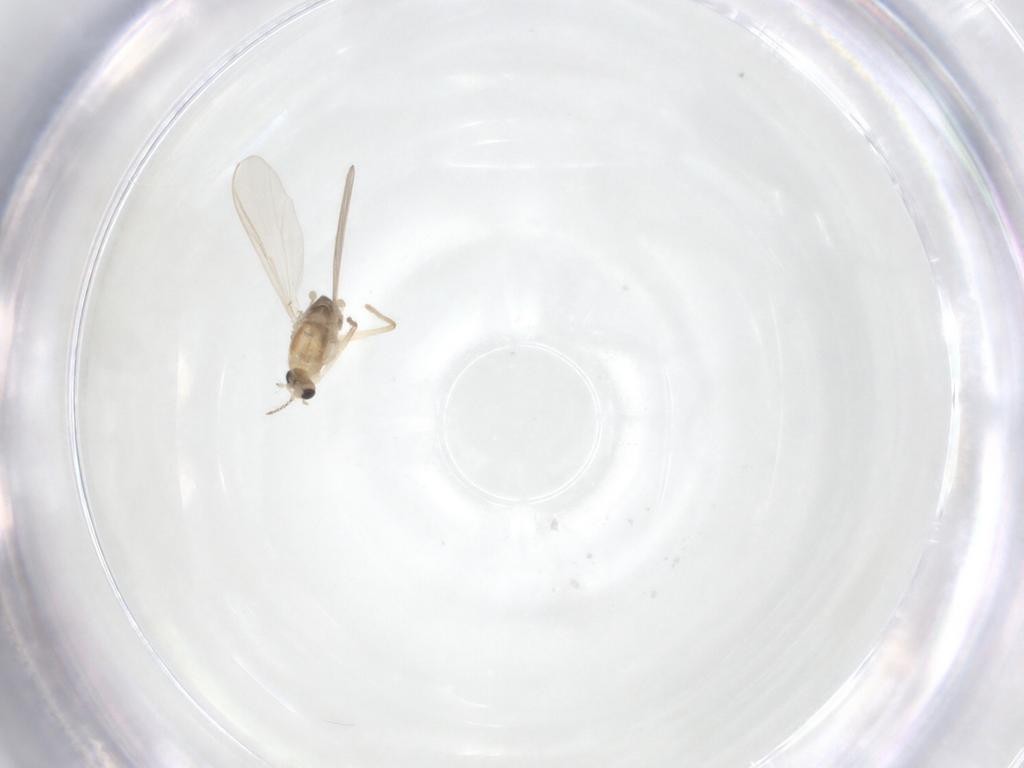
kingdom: Animalia
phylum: Arthropoda
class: Insecta
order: Diptera
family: Chironomidae
